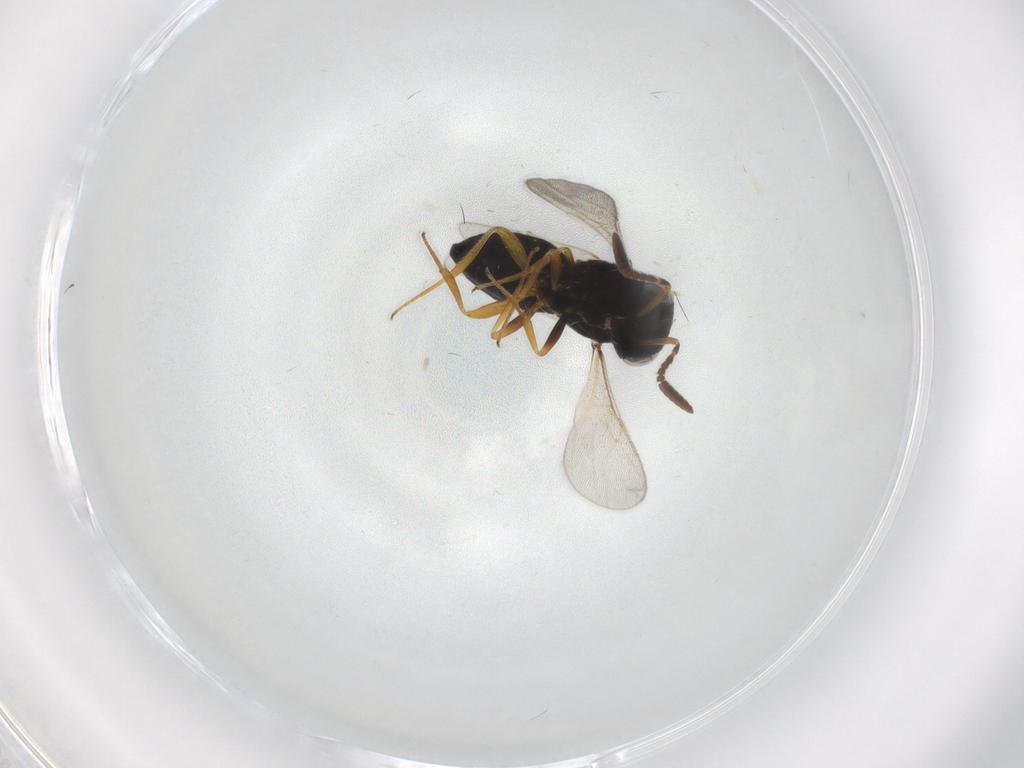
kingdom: Animalia
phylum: Arthropoda
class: Insecta
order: Hymenoptera
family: Scelionidae
